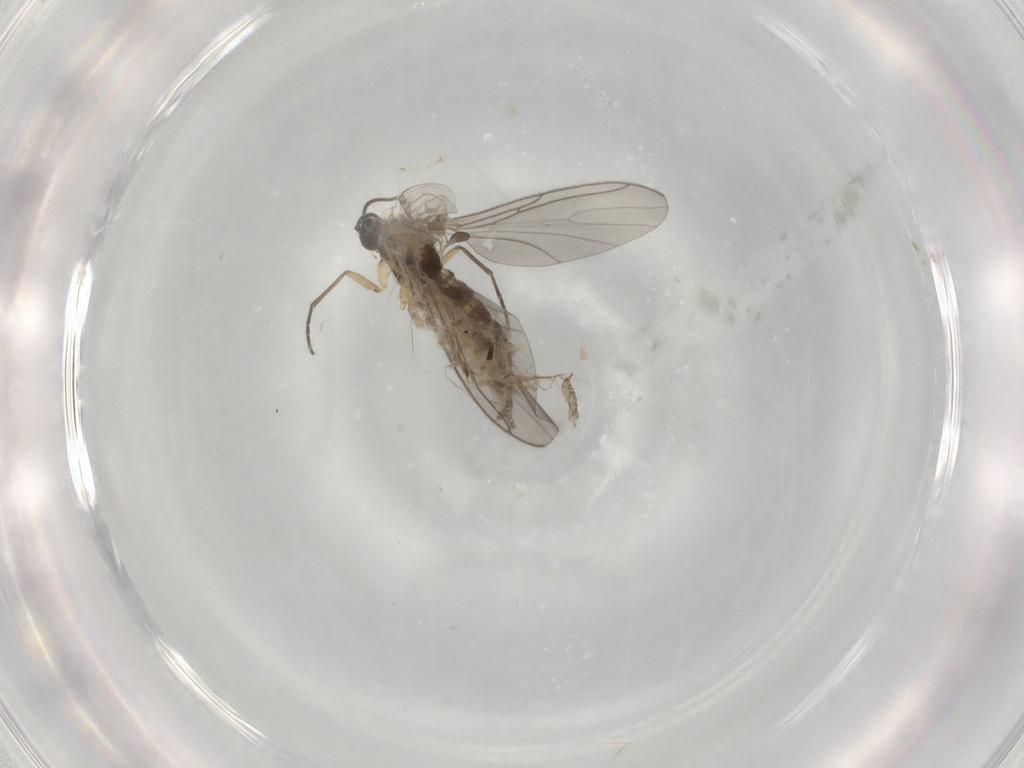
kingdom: Animalia
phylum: Arthropoda
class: Insecta
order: Diptera
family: Sciaridae
